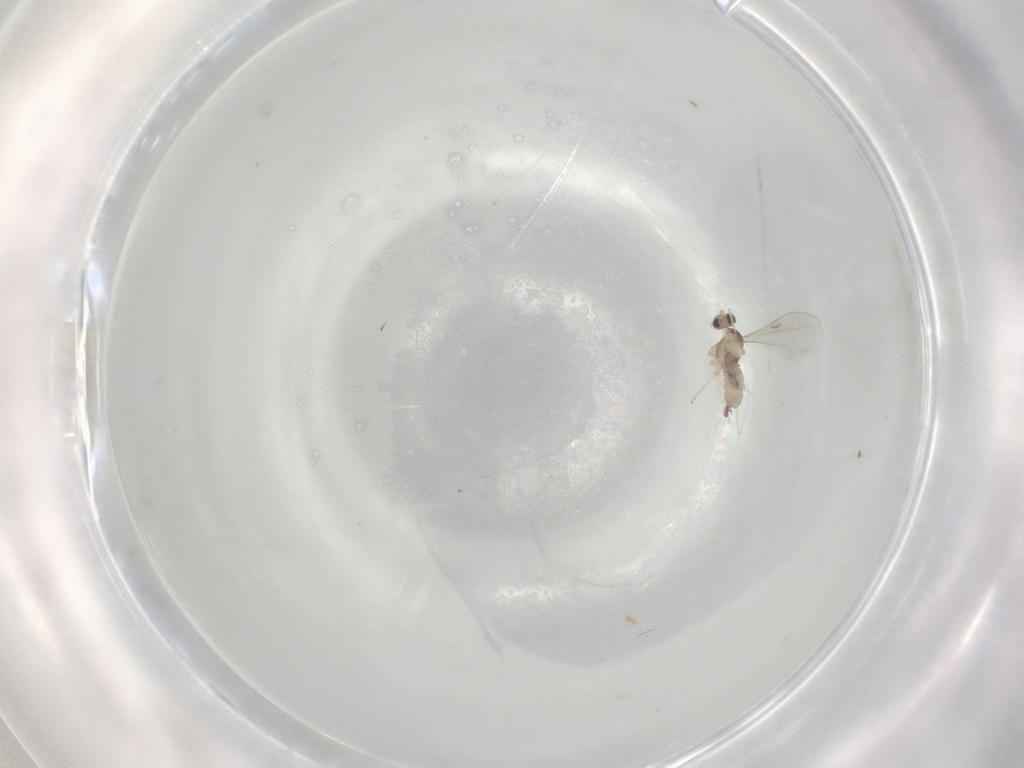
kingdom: Animalia
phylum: Arthropoda
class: Insecta
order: Diptera
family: Cecidomyiidae
